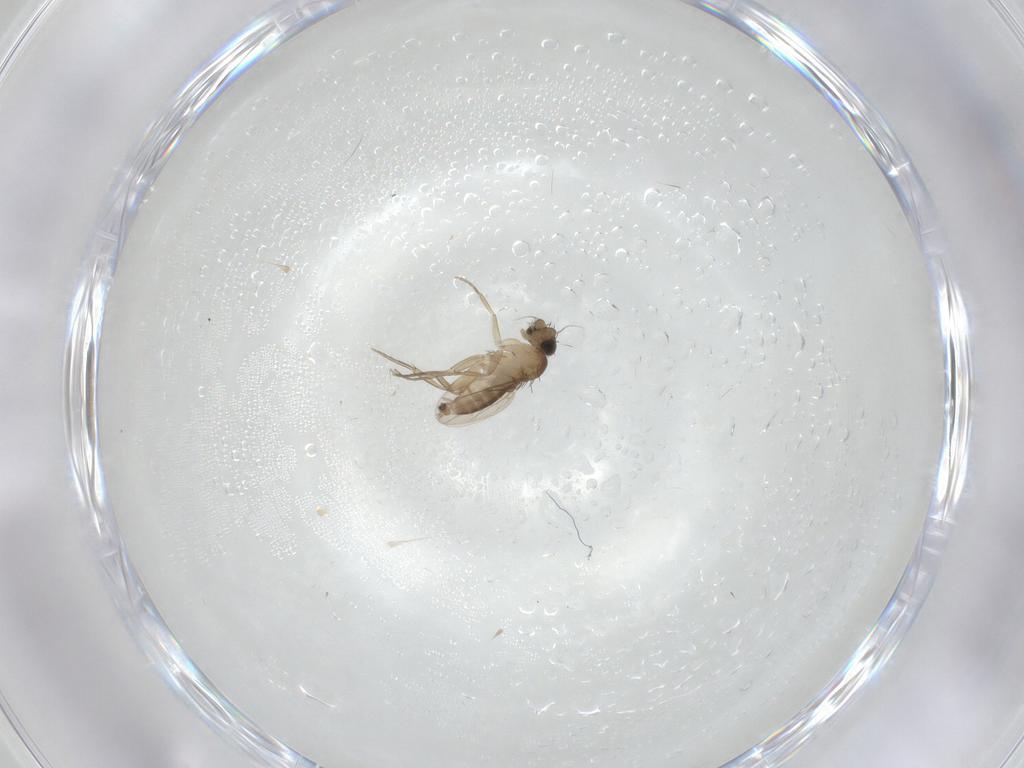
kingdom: Animalia
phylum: Arthropoda
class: Insecta
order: Diptera
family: Phoridae
